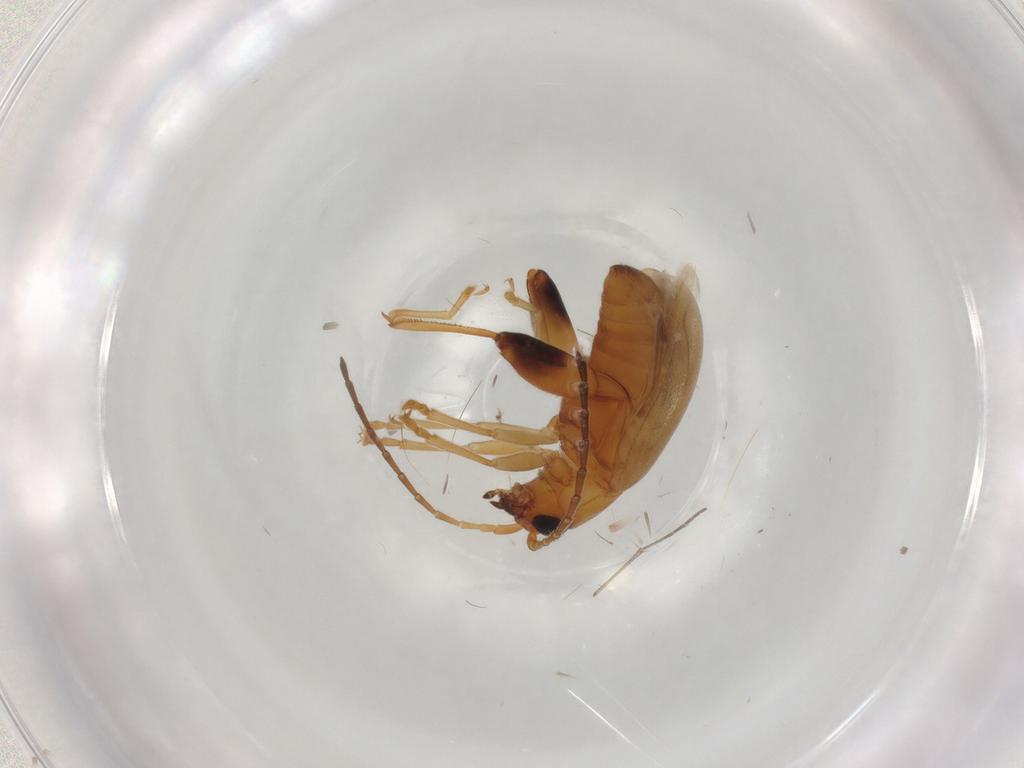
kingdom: Animalia
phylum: Arthropoda
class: Insecta
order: Coleoptera
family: Chrysomelidae
